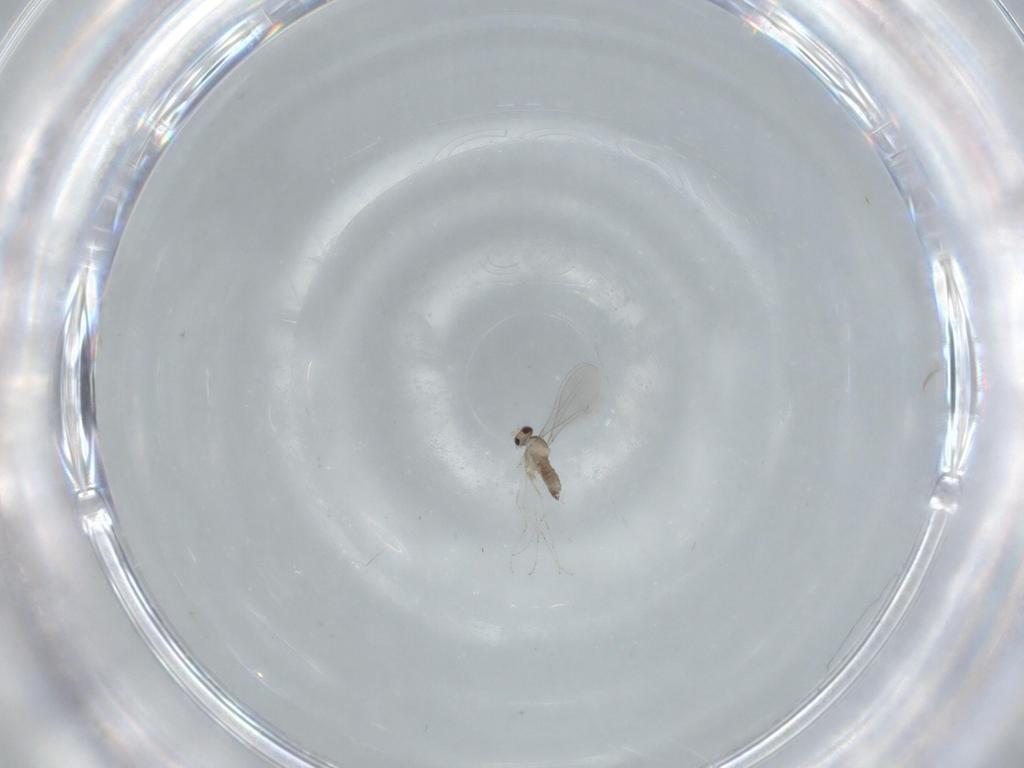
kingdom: Animalia
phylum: Arthropoda
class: Insecta
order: Diptera
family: Cecidomyiidae
